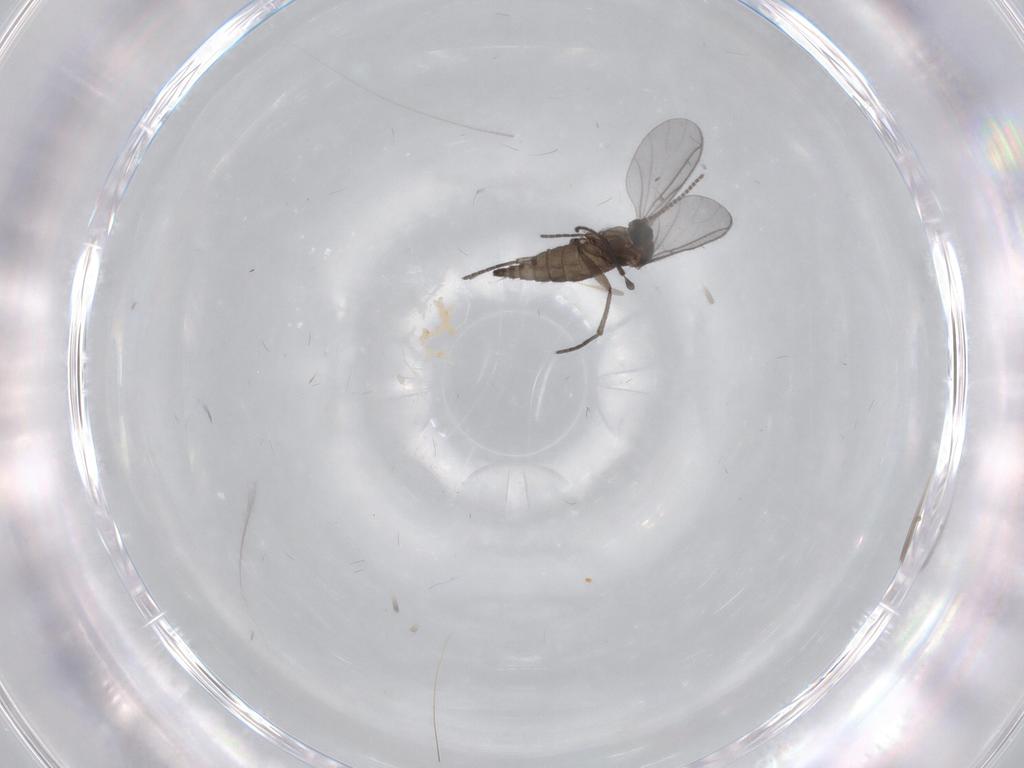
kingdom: Animalia
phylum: Arthropoda
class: Insecta
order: Diptera
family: Cecidomyiidae
